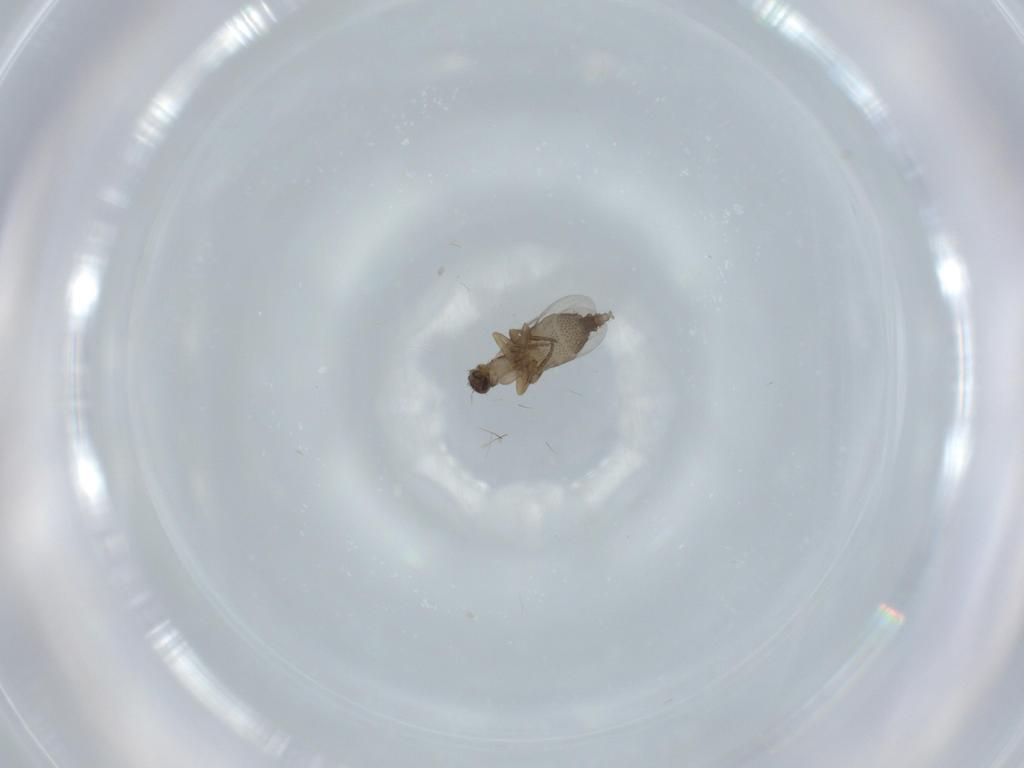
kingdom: Animalia
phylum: Arthropoda
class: Insecta
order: Diptera
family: Phoridae
